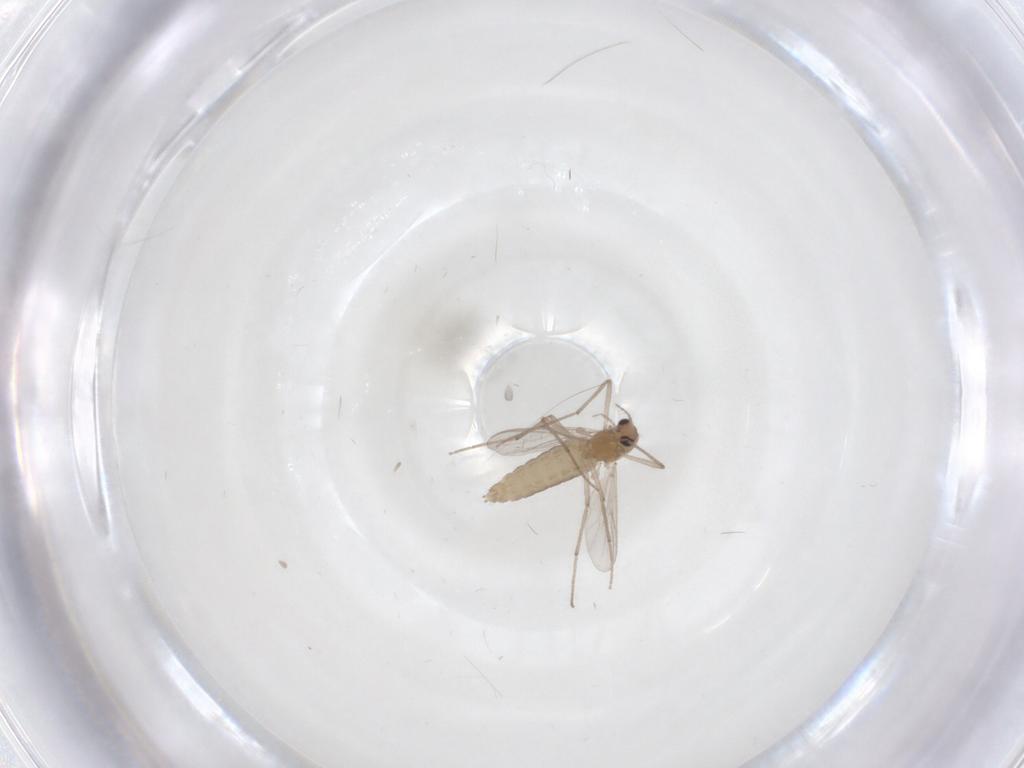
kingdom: Animalia
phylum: Arthropoda
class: Insecta
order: Diptera
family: Chironomidae
